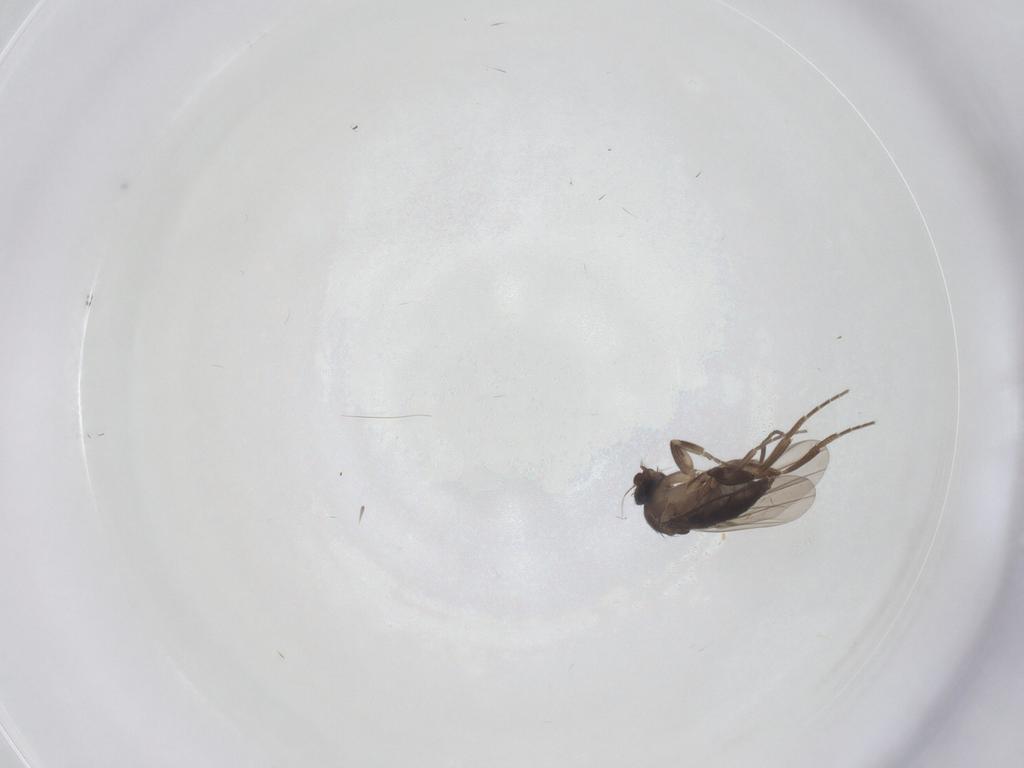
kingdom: Animalia
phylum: Arthropoda
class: Insecta
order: Diptera
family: Phoridae
